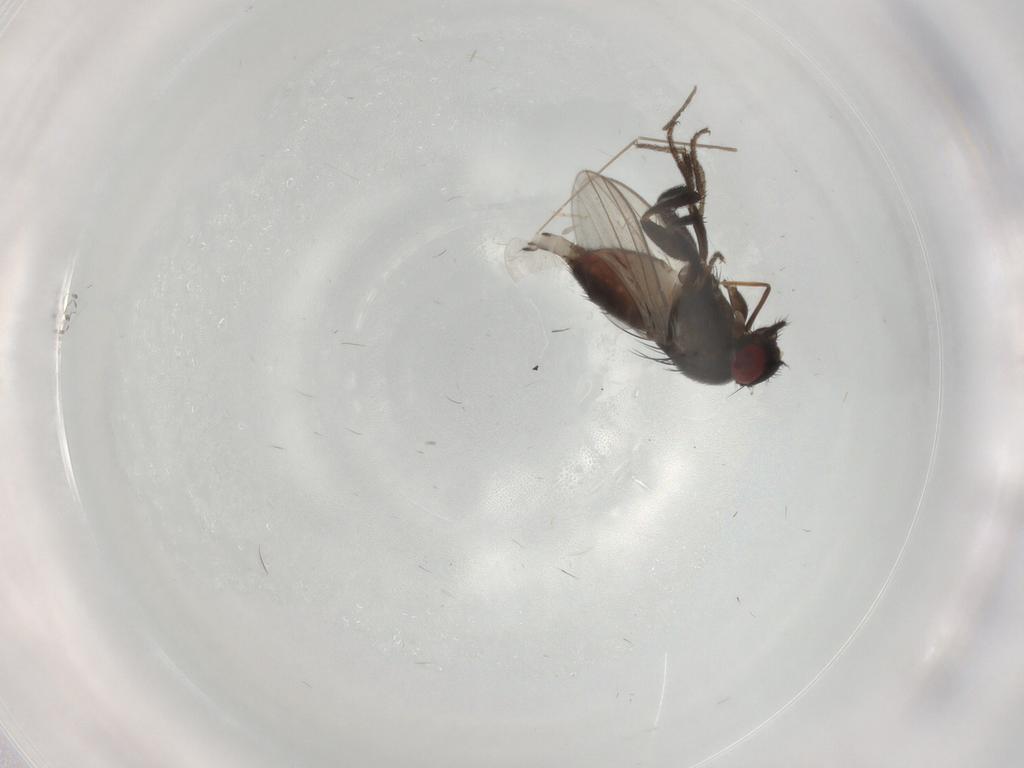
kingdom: Animalia
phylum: Arthropoda
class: Insecta
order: Diptera
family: Milichiidae
